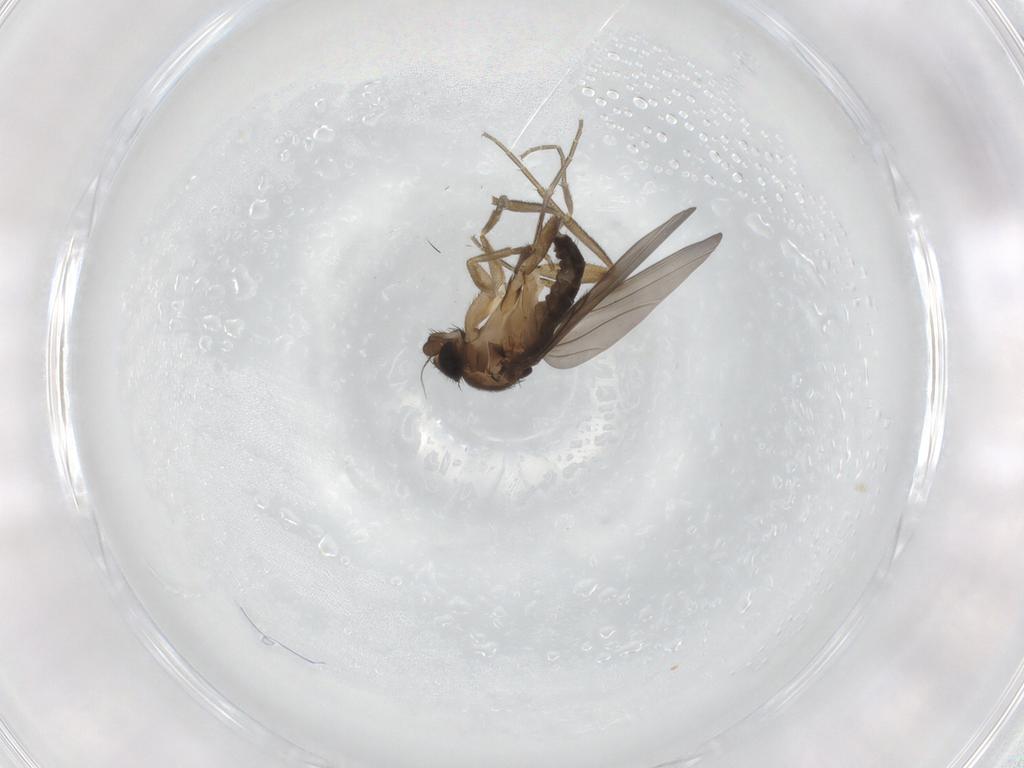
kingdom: Animalia
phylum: Arthropoda
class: Insecta
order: Diptera
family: Phoridae
